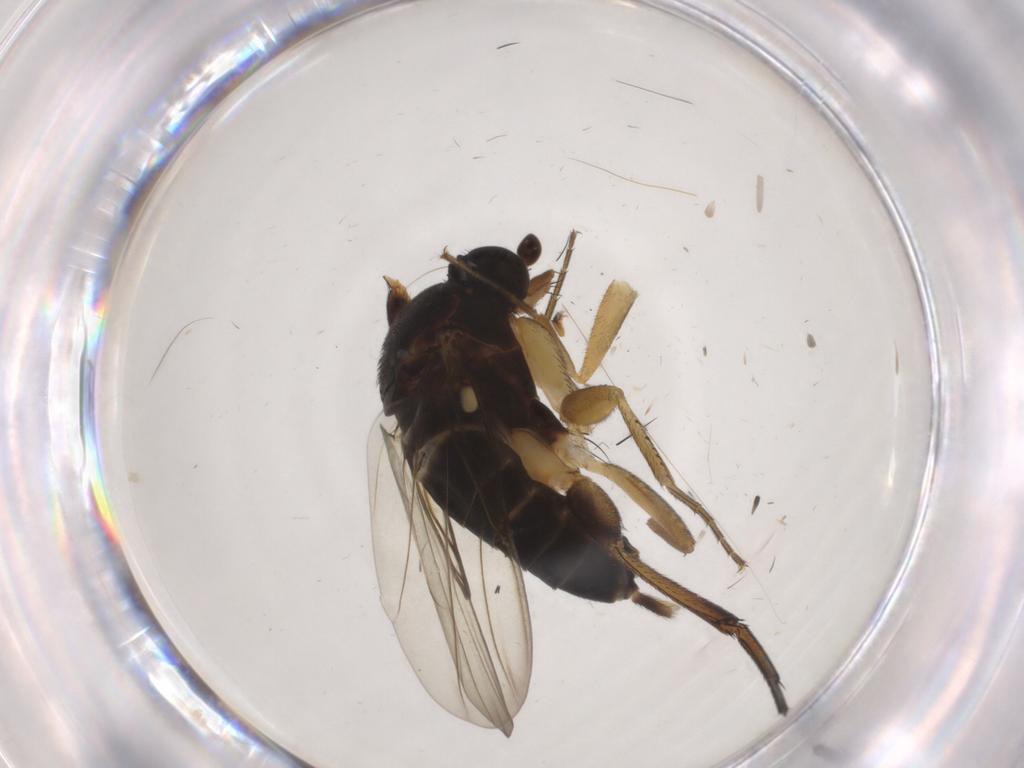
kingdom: Animalia
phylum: Arthropoda
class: Insecta
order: Diptera
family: Phoridae
